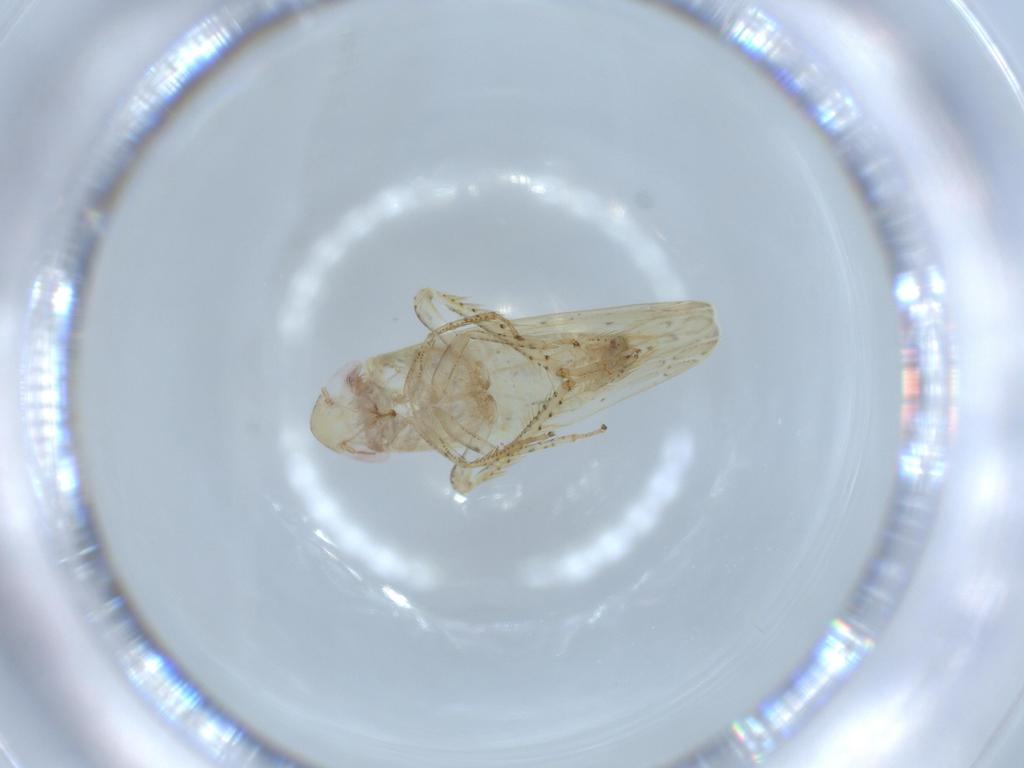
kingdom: Animalia
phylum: Arthropoda
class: Insecta
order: Hemiptera
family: Cicadellidae
